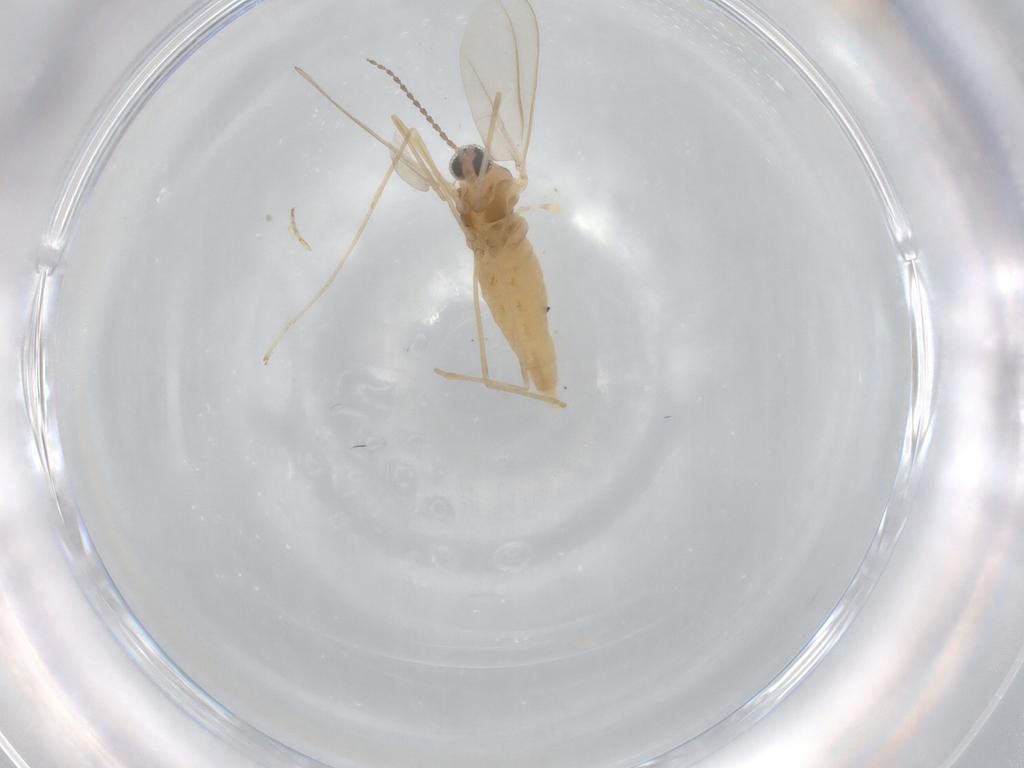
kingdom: Animalia
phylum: Arthropoda
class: Insecta
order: Diptera
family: Cecidomyiidae
